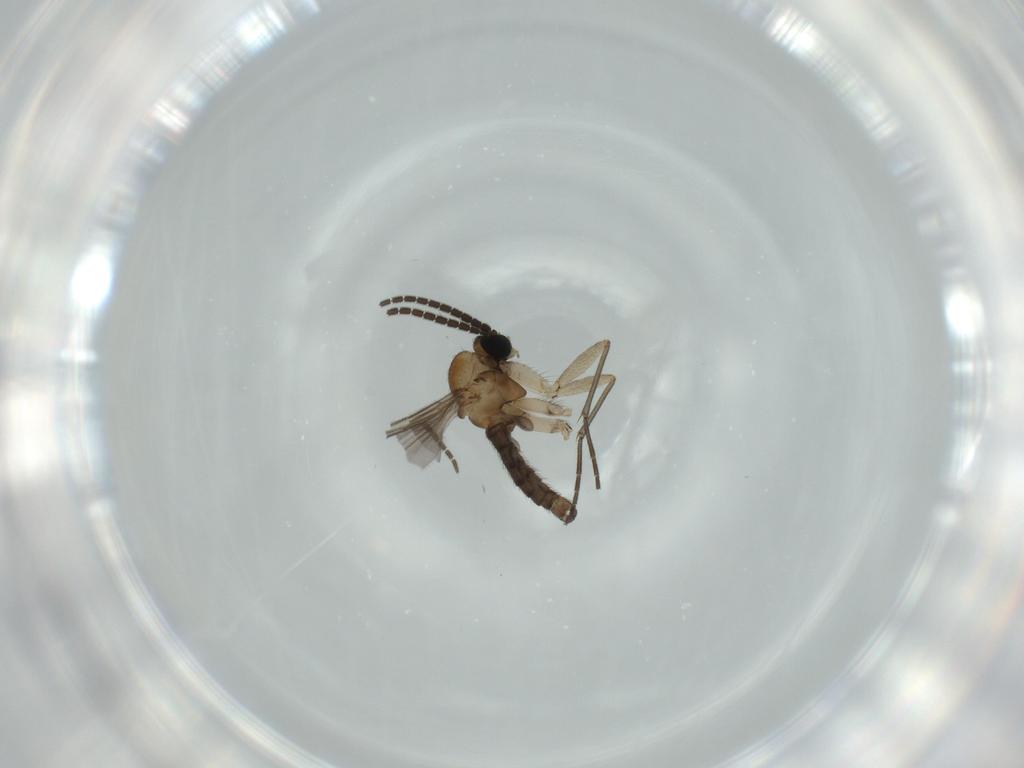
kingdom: Animalia
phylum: Arthropoda
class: Insecta
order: Diptera
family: Sciaridae
